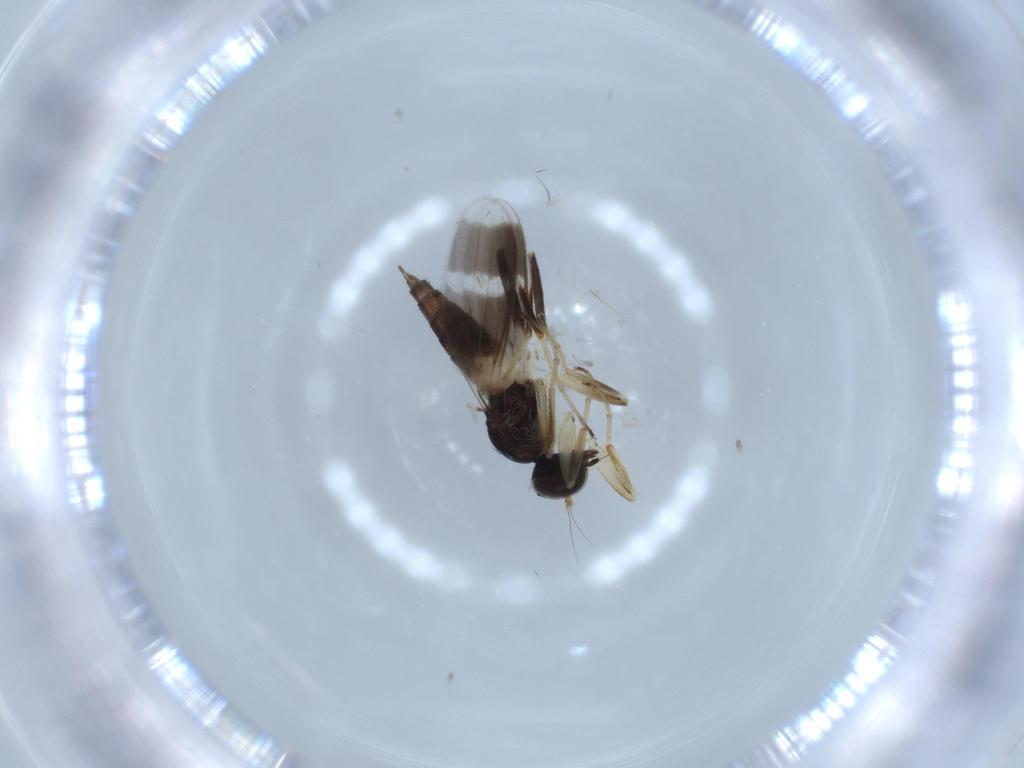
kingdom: Animalia
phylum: Arthropoda
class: Insecta
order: Diptera
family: Hybotidae
